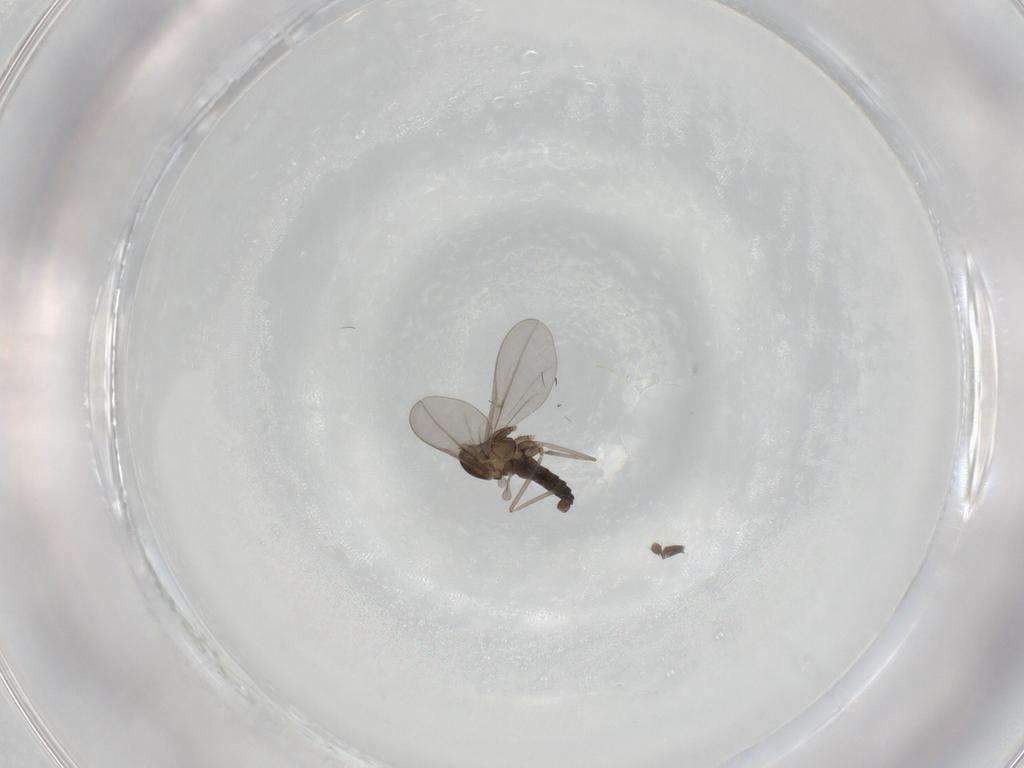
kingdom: Animalia
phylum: Arthropoda
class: Insecta
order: Diptera
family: Cecidomyiidae
